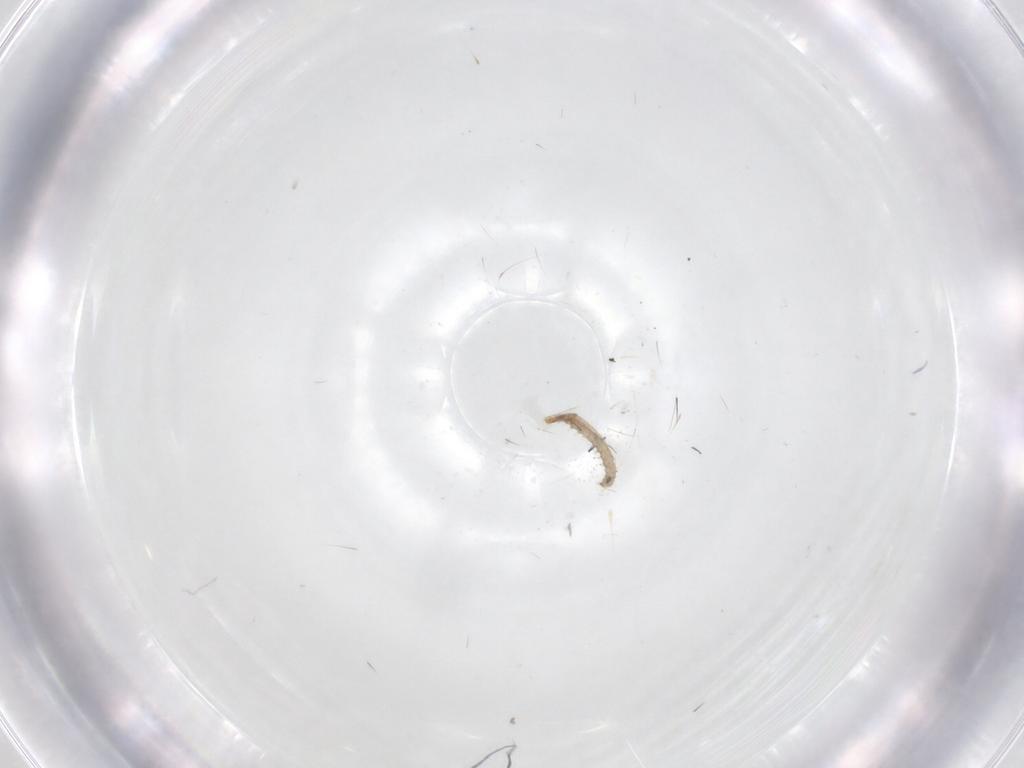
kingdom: Animalia
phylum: Arthropoda
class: Insecta
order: Lepidoptera
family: Tineidae
